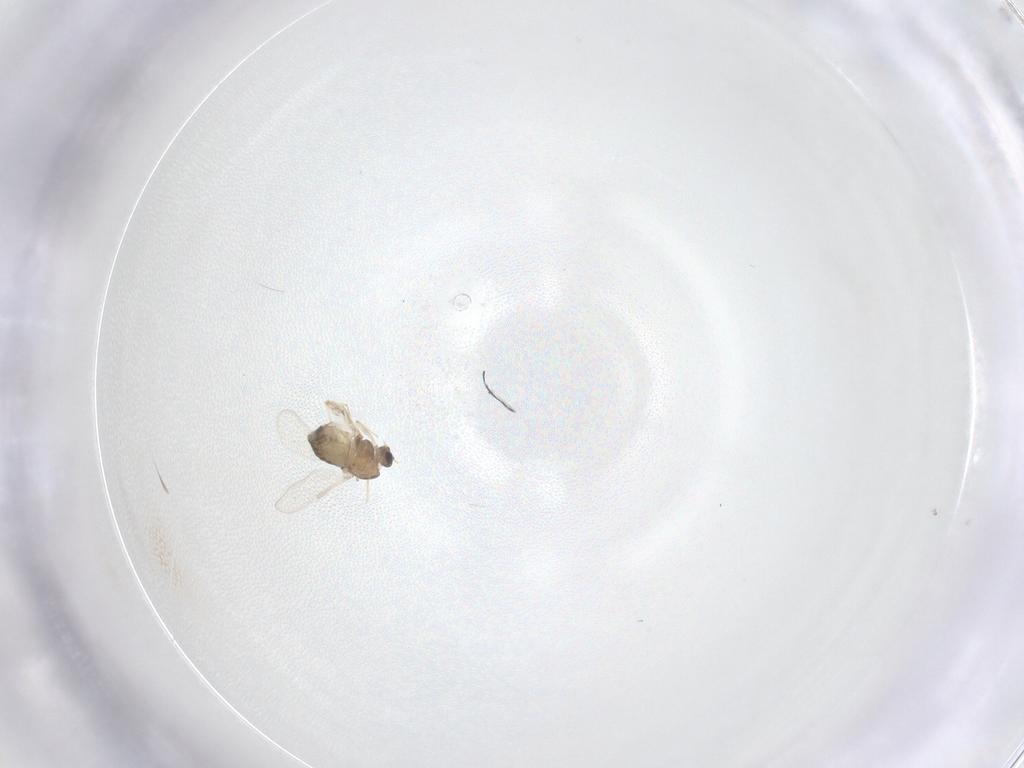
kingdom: Animalia
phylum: Arthropoda
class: Insecta
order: Diptera
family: Chironomidae
